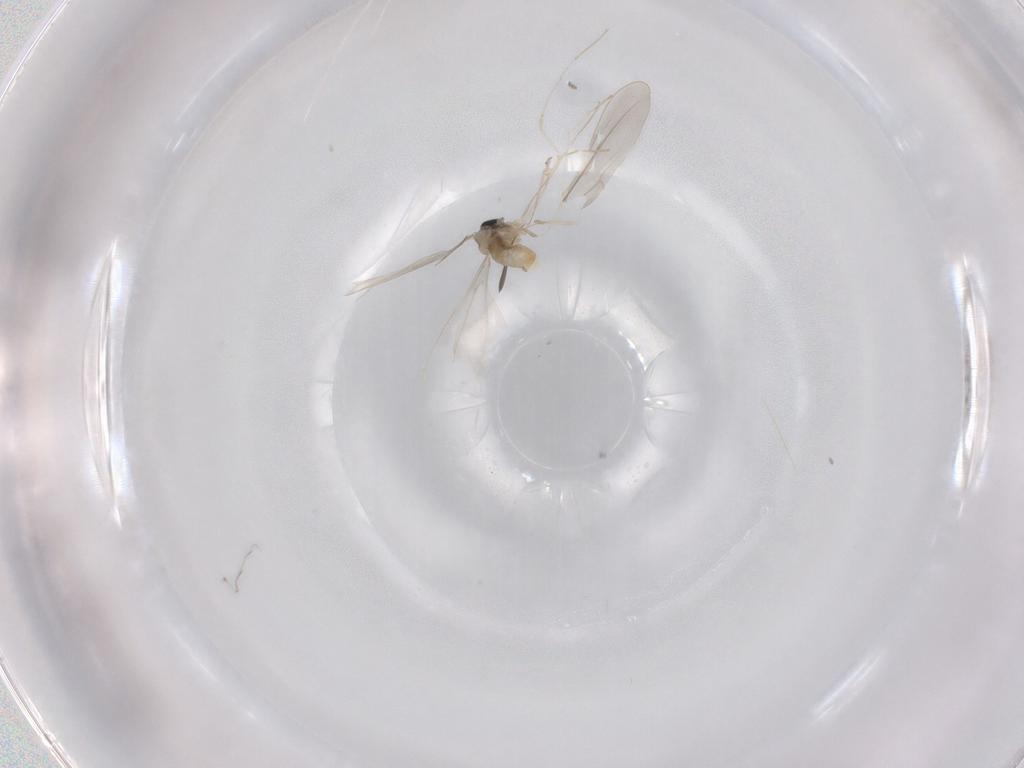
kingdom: Animalia
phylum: Arthropoda
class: Insecta
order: Diptera
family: Cecidomyiidae
